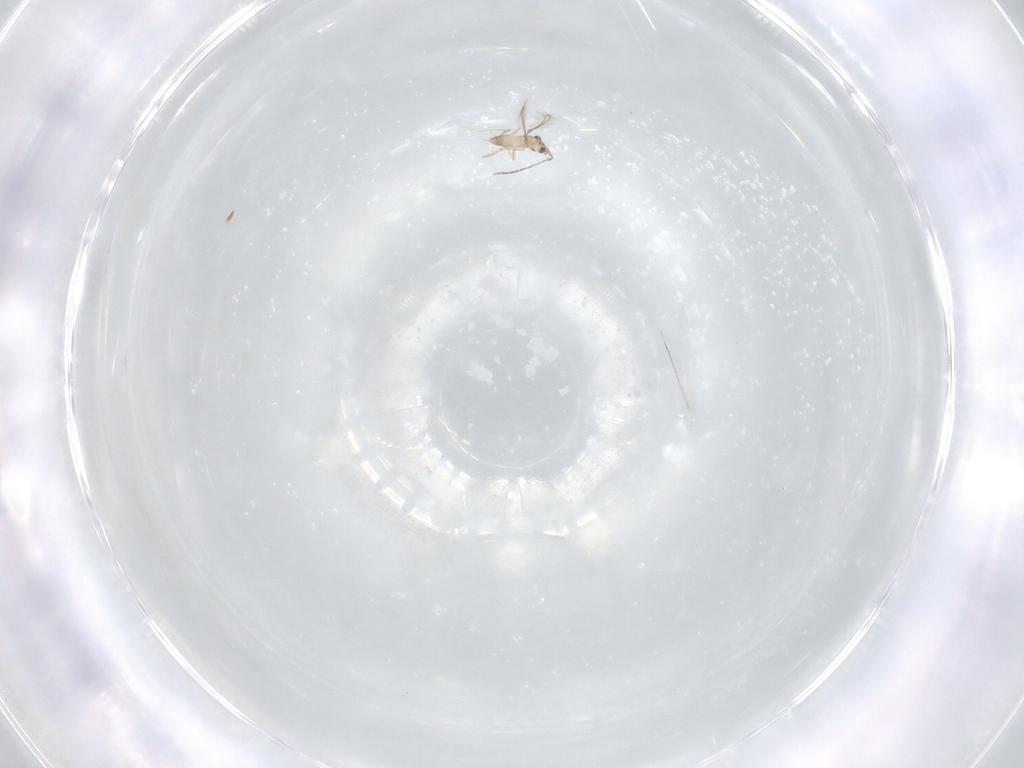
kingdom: Animalia
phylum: Arthropoda
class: Insecta
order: Hymenoptera
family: Mymaridae
